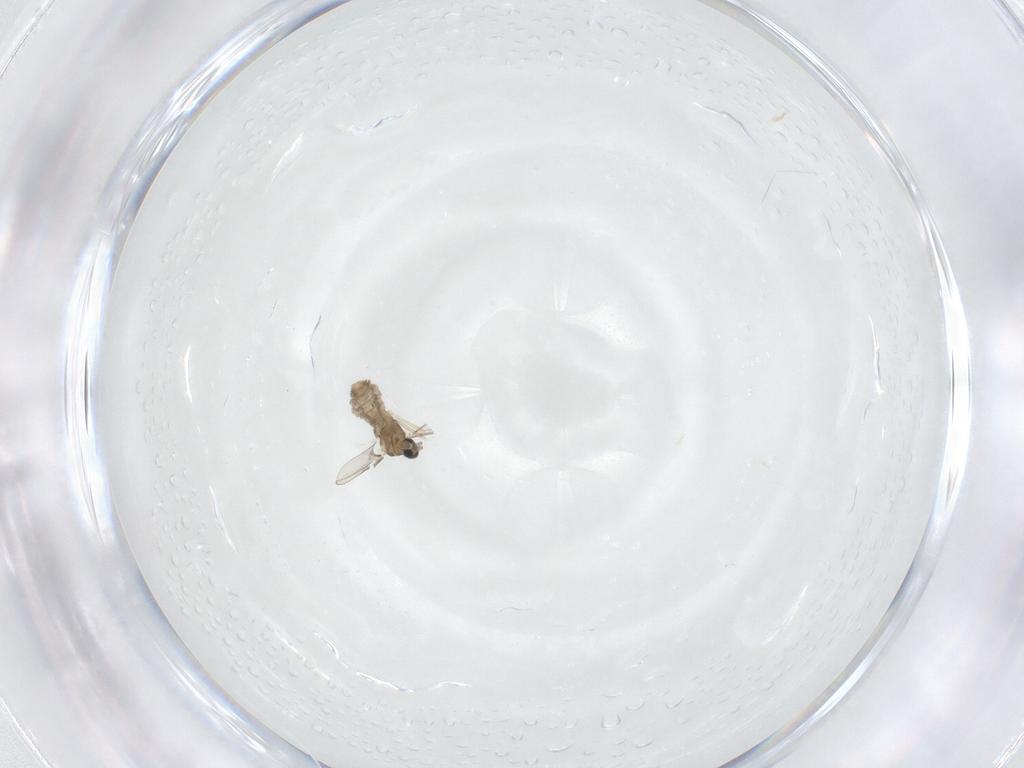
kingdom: Animalia
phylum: Arthropoda
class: Insecta
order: Diptera
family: Cecidomyiidae
